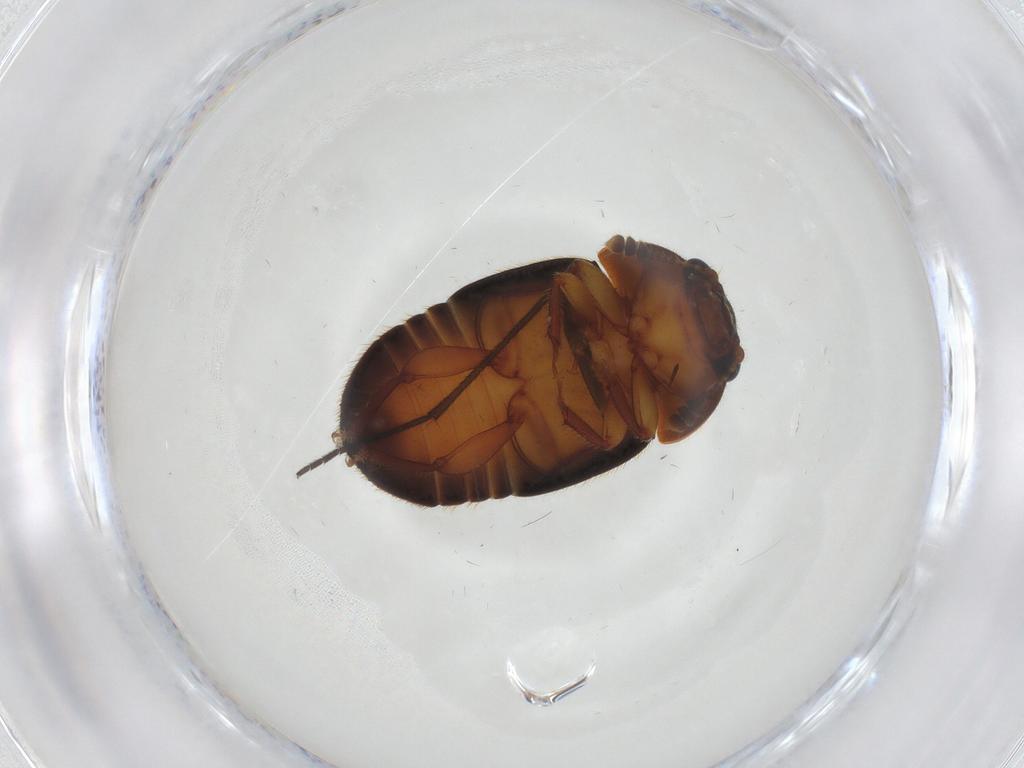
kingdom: Animalia
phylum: Arthropoda
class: Insecta
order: Coleoptera
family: Nitidulidae
